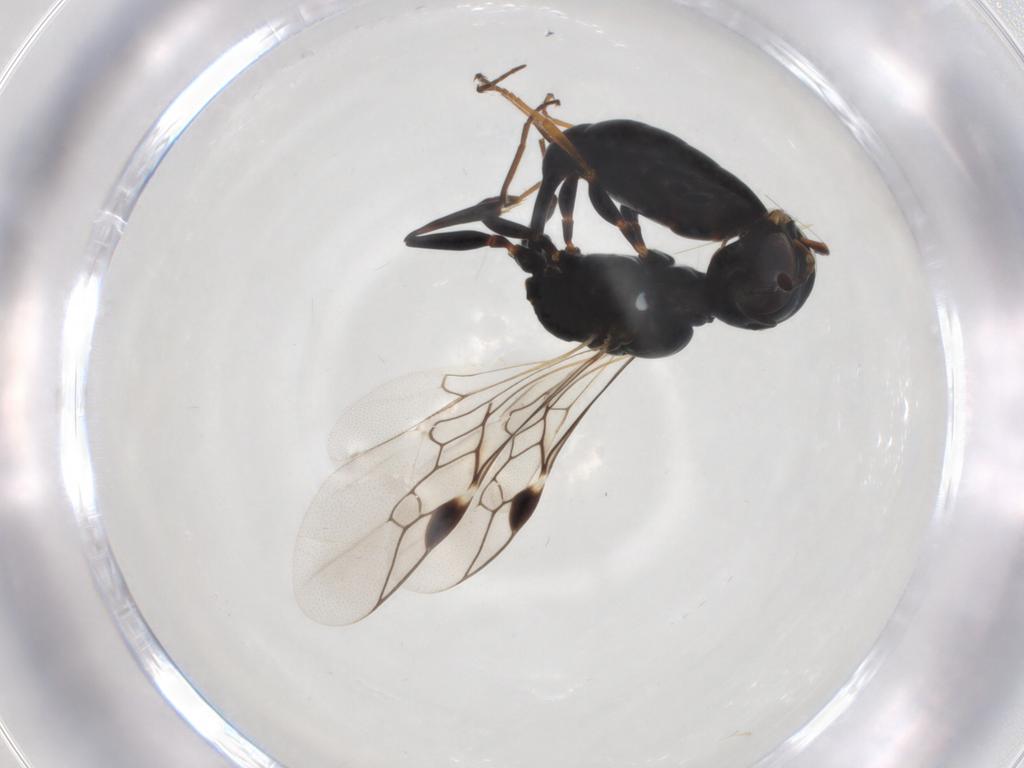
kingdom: Animalia
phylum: Arthropoda
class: Insecta
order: Hymenoptera
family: Pemphredonidae
